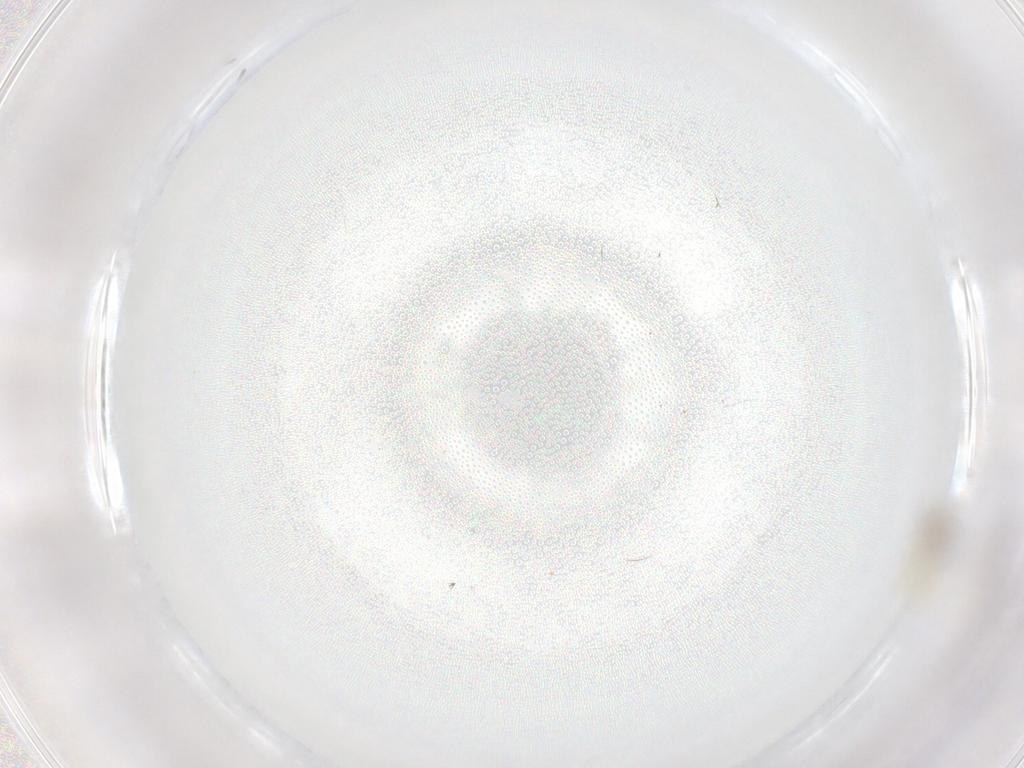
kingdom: Animalia
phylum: Arthropoda
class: Insecta
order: Diptera
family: Chironomidae
